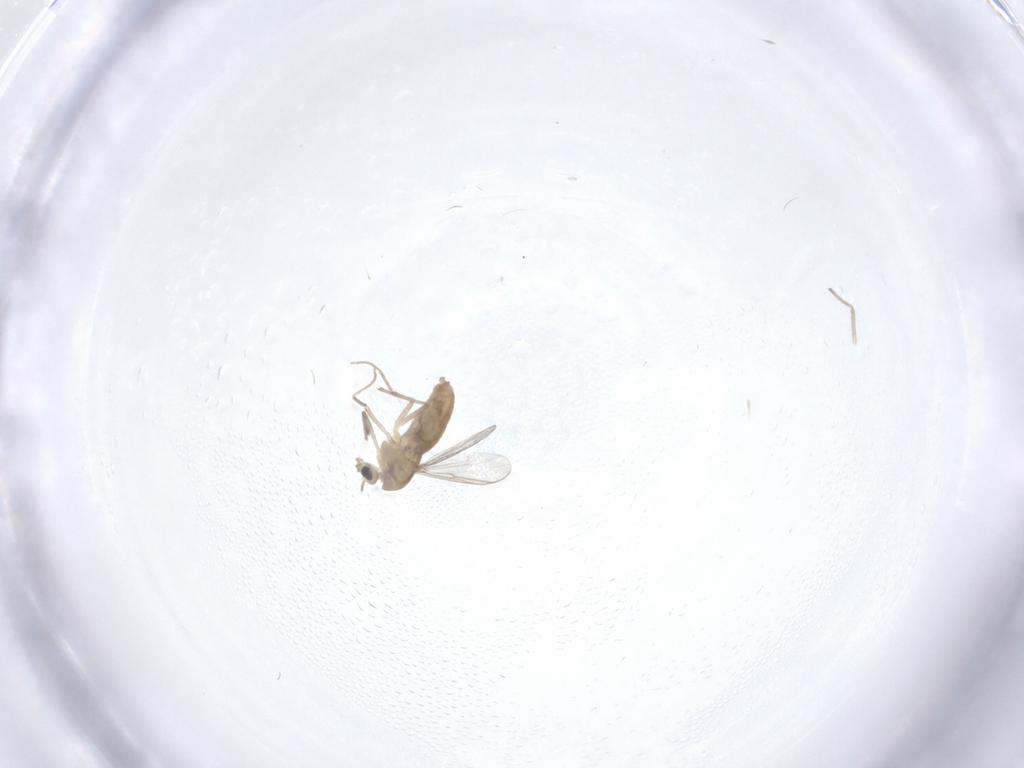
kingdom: Animalia
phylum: Arthropoda
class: Insecta
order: Diptera
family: Chironomidae
